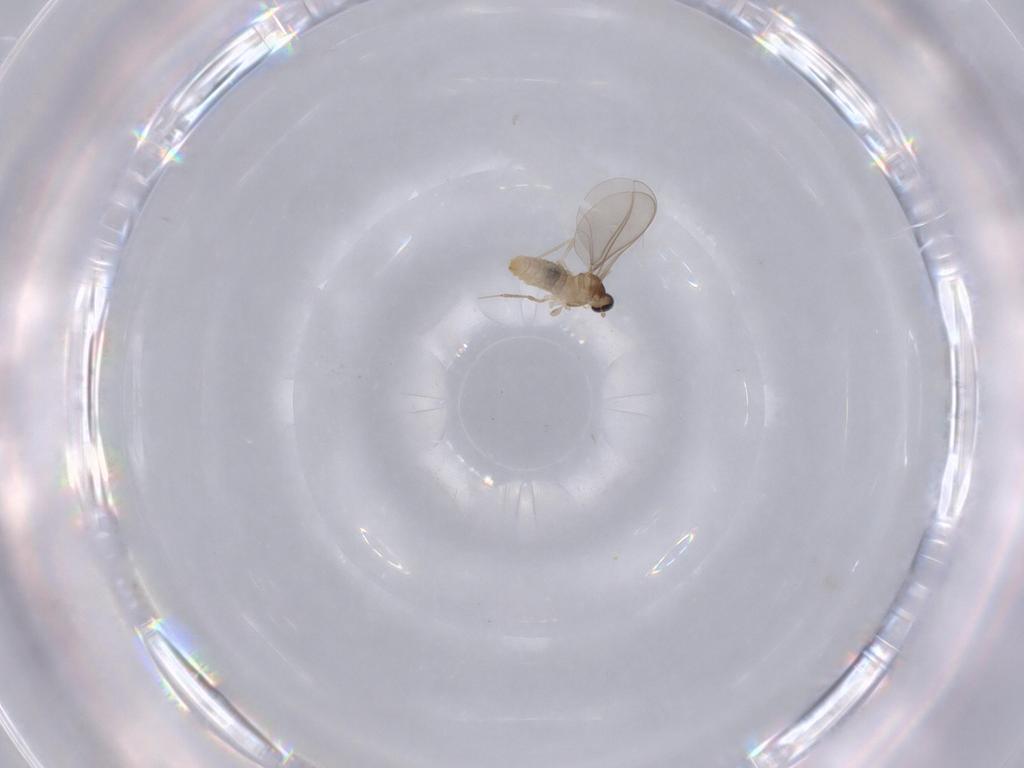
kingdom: Animalia
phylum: Arthropoda
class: Insecta
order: Diptera
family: Cecidomyiidae
